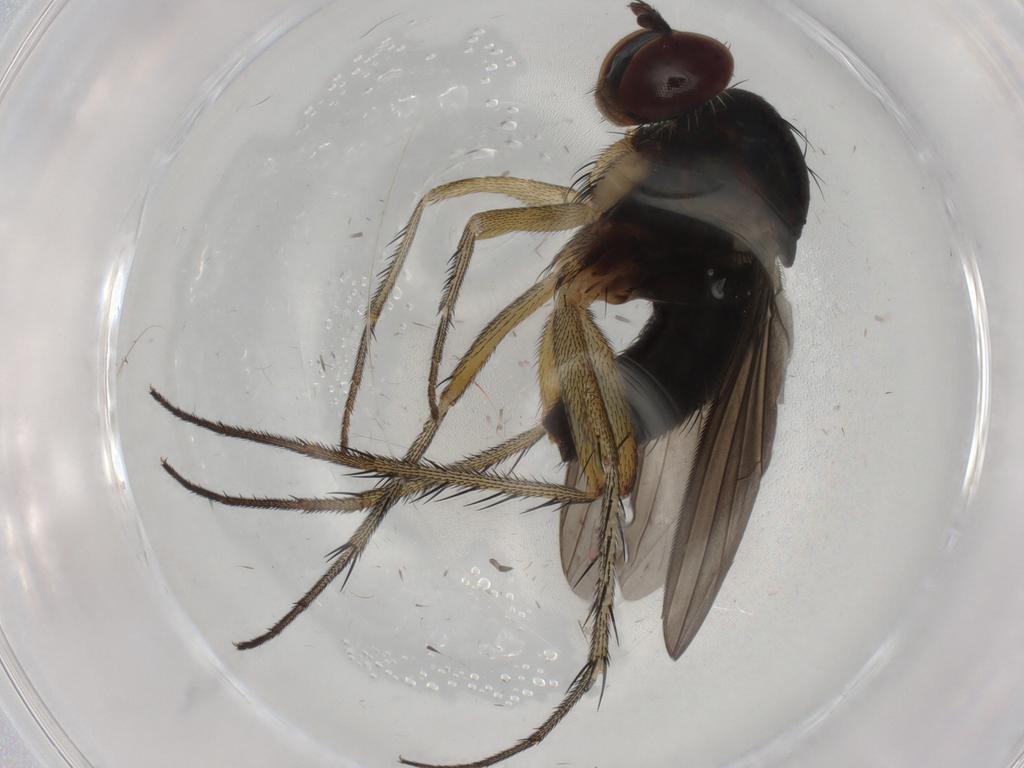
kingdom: Animalia
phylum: Arthropoda
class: Insecta
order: Diptera
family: Dolichopodidae
